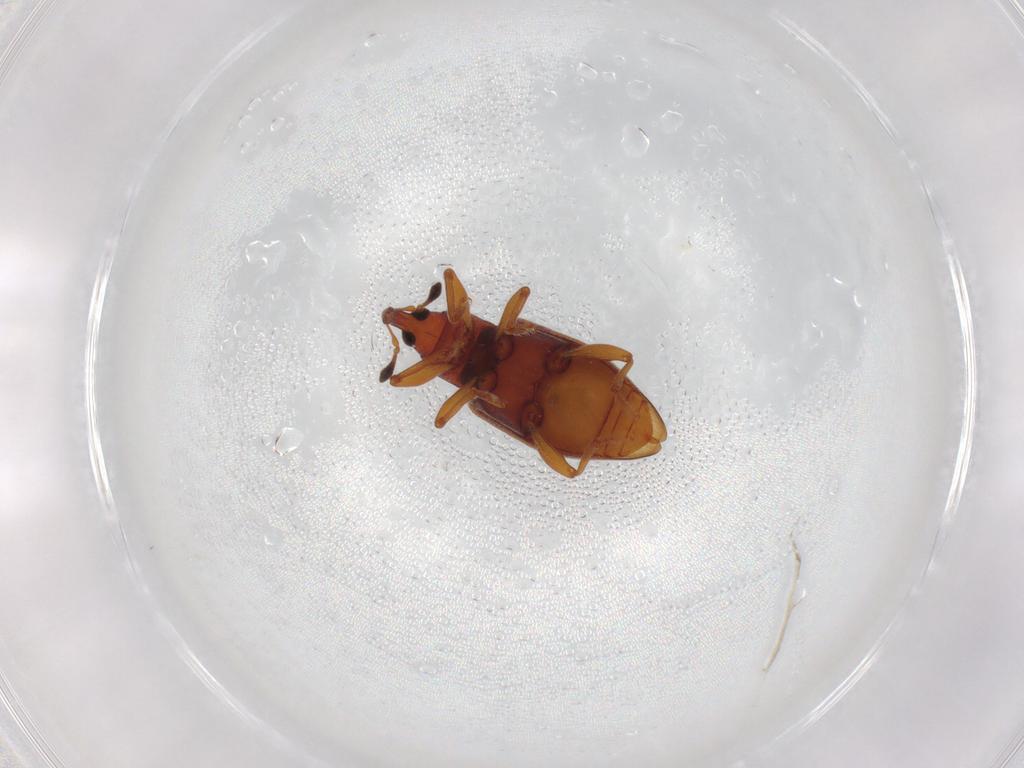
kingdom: Animalia
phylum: Arthropoda
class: Insecta
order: Coleoptera
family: Curculionidae
